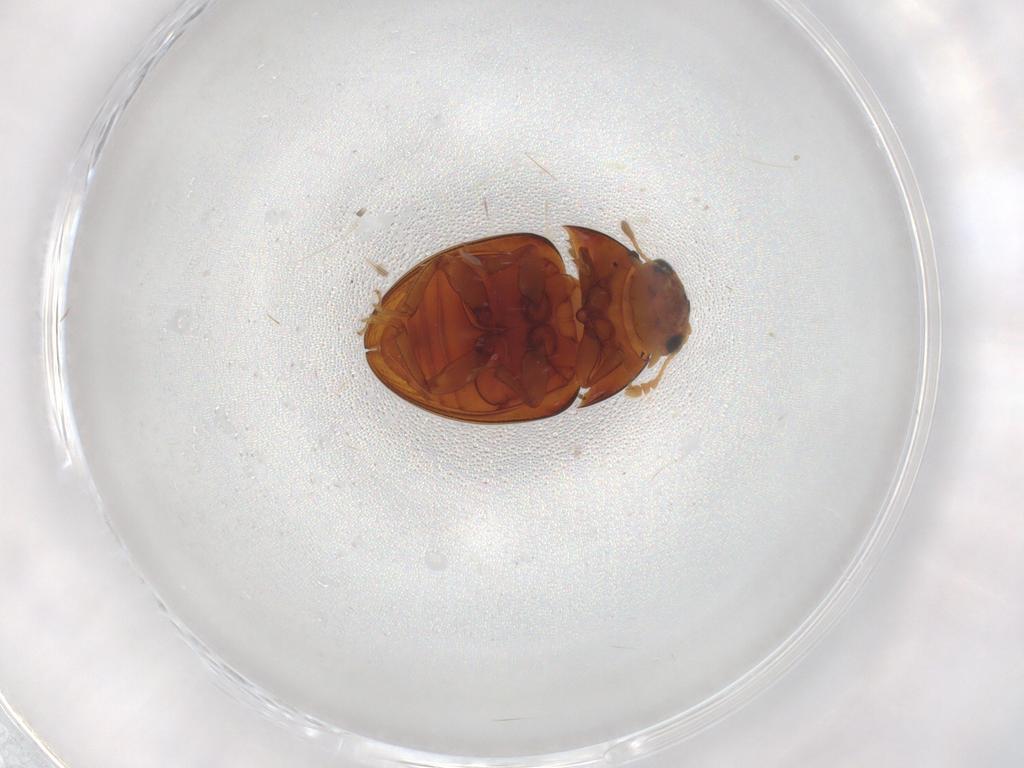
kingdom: Animalia
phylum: Arthropoda
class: Insecta
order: Coleoptera
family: Phalacridae
